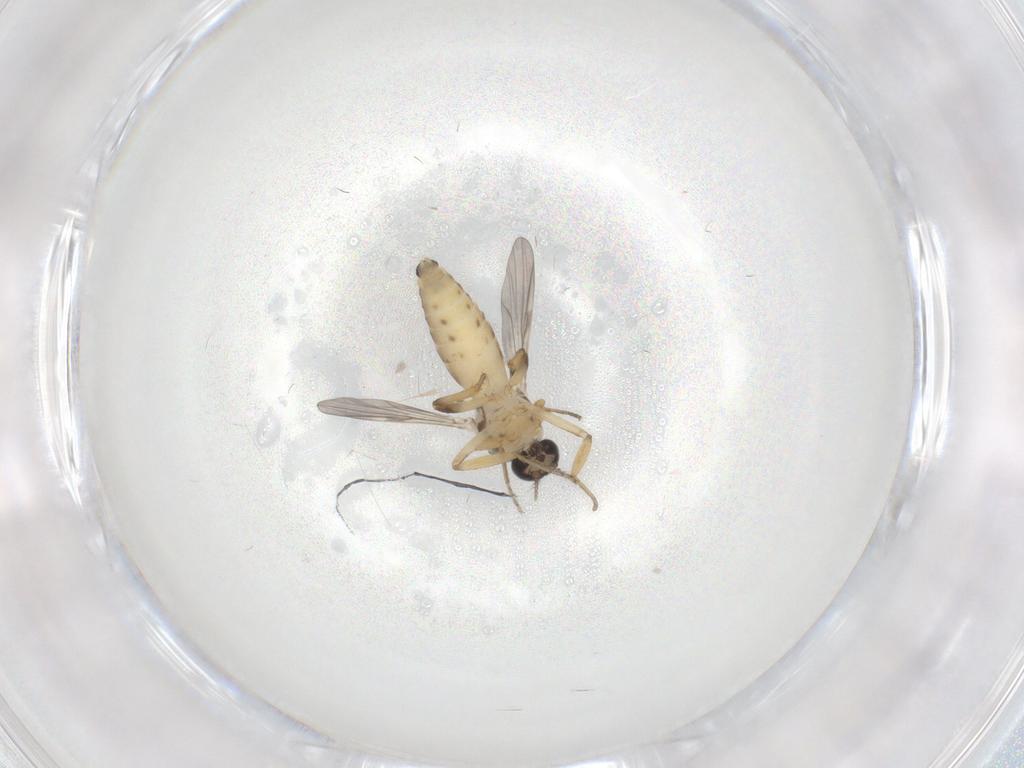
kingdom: Animalia
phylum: Arthropoda
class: Insecta
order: Diptera
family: Ceratopogonidae
